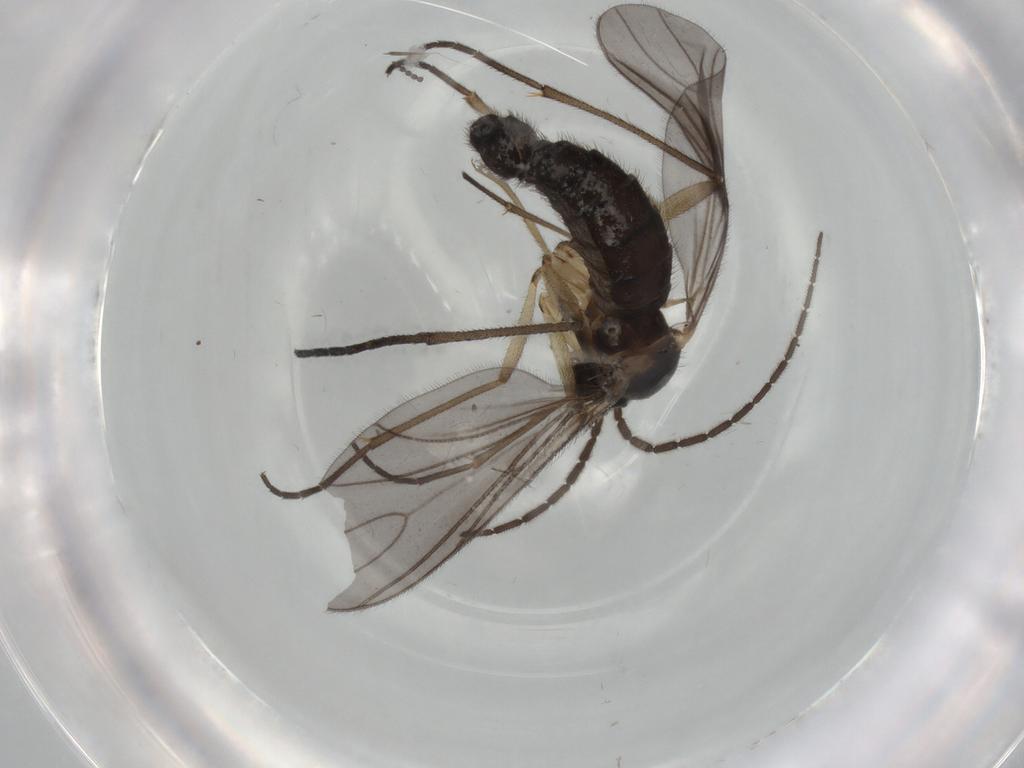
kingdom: Animalia
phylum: Arthropoda
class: Insecta
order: Diptera
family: Sciaridae
